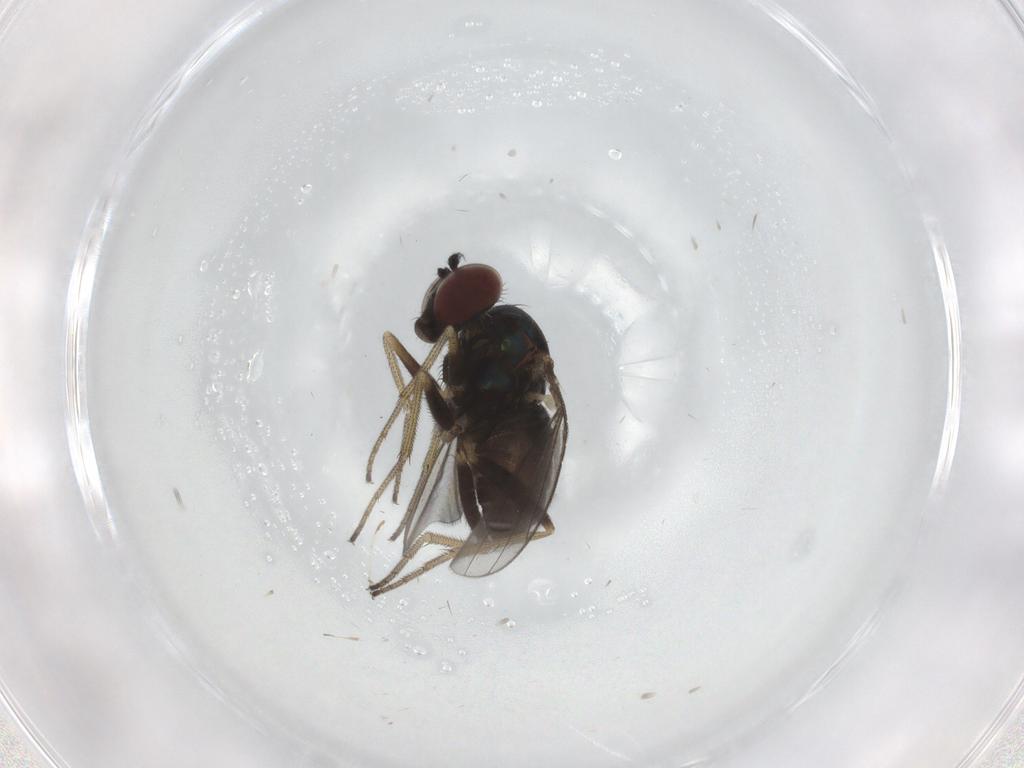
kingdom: Animalia
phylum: Arthropoda
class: Insecta
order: Diptera
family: Dolichopodidae
